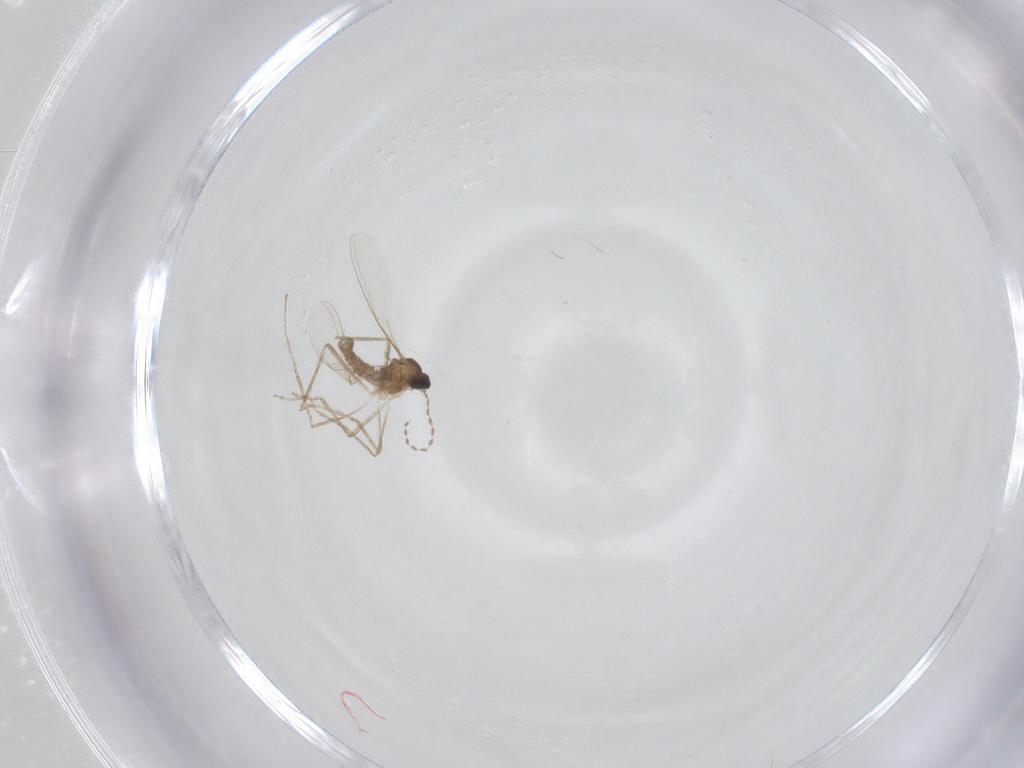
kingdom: Animalia
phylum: Arthropoda
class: Insecta
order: Diptera
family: Cecidomyiidae
